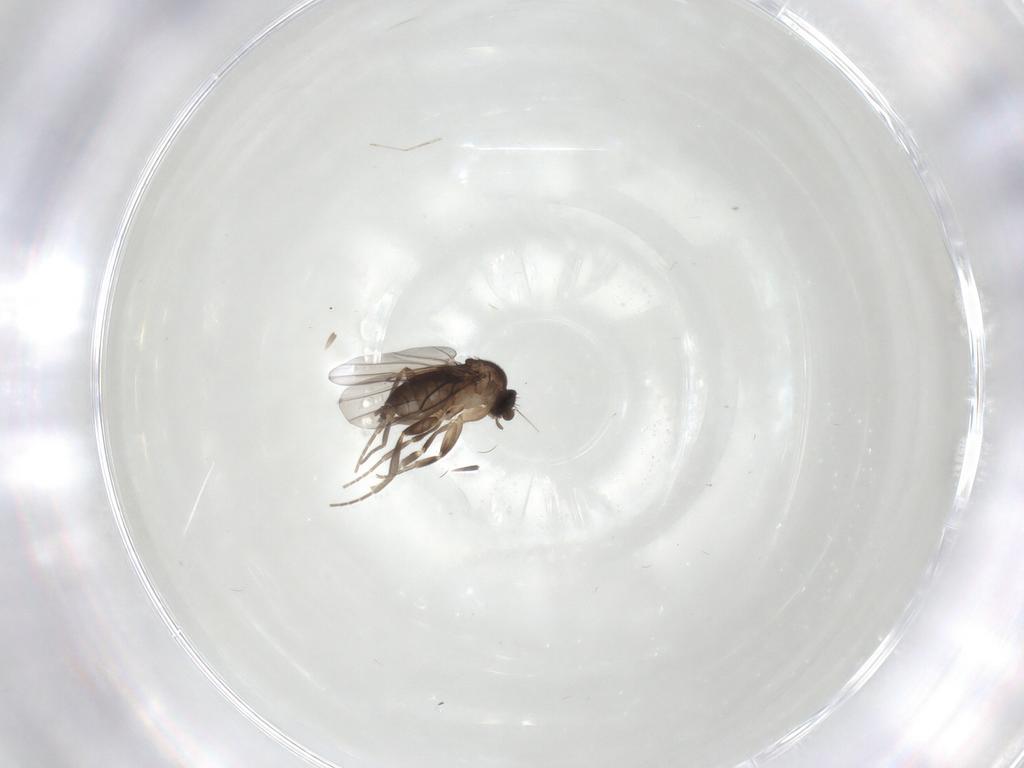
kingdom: Animalia
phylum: Arthropoda
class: Insecta
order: Diptera
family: Phoridae
